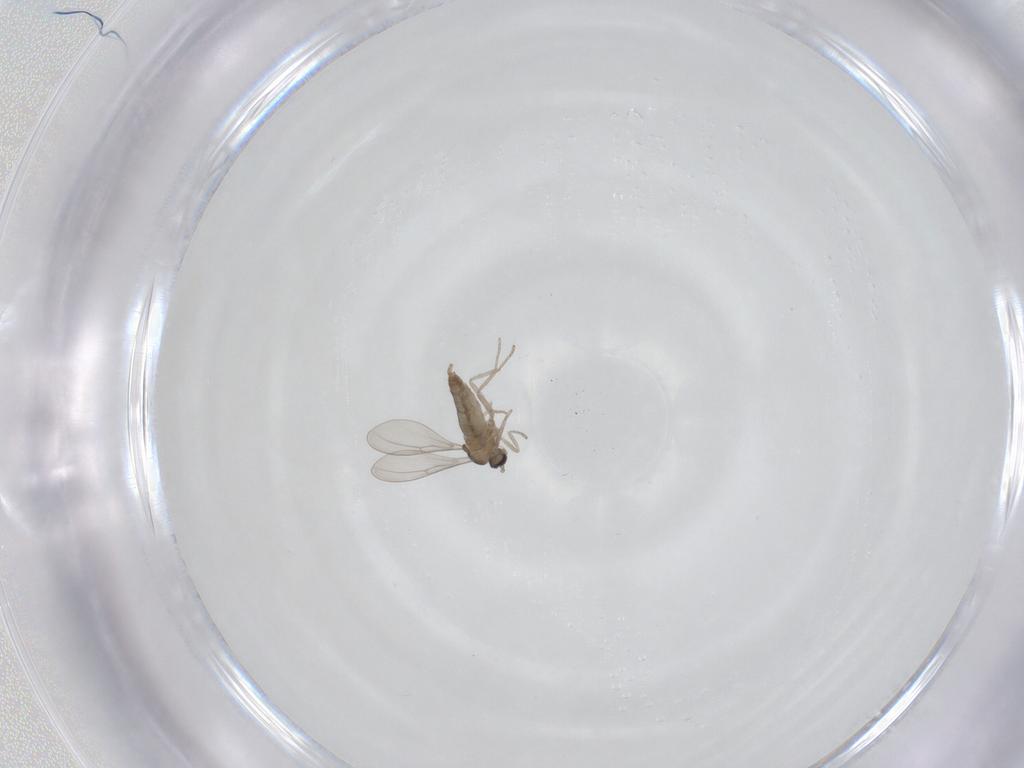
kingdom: Animalia
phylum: Arthropoda
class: Insecta
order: Diptera
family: Cecidomyiidae
